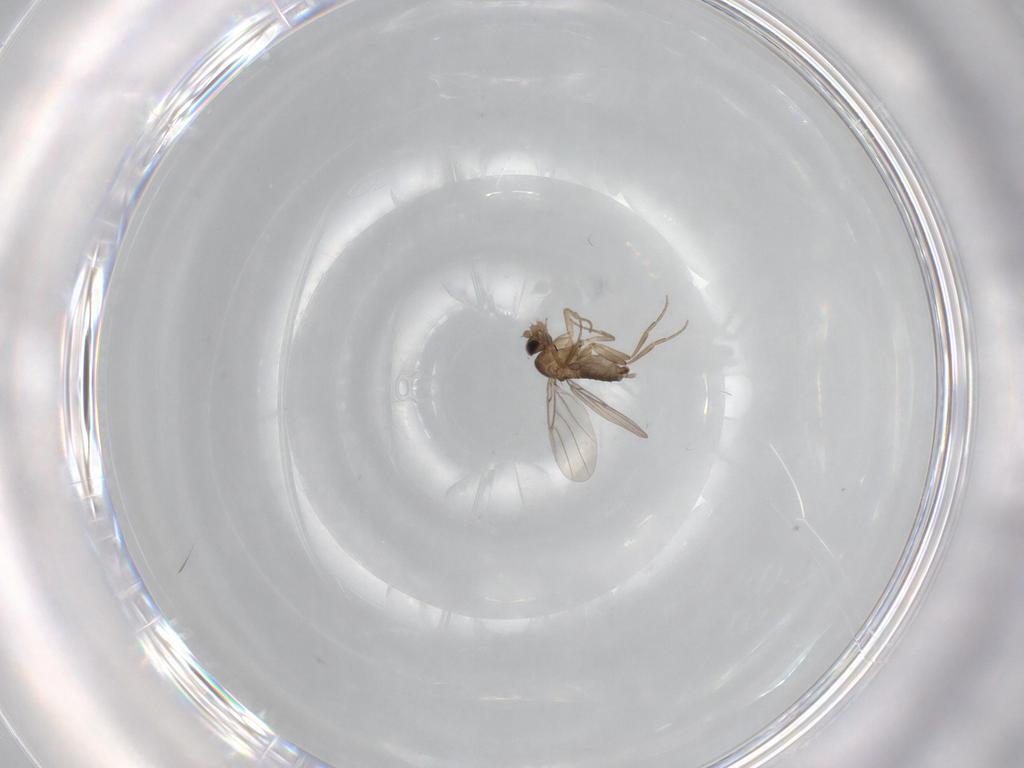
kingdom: Animalia
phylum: Arthropoda
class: Insecta
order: Diptera
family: Phoridae
